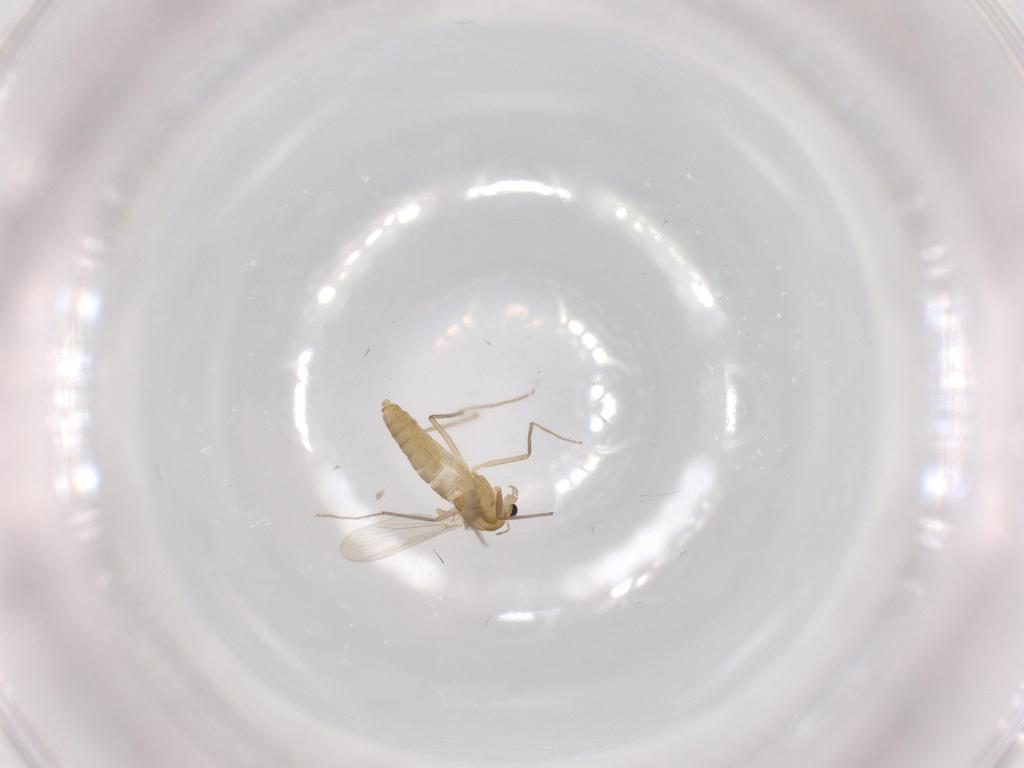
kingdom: Animalia
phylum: Arthropoda
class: Insecta
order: Diptera
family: Chironomidae
